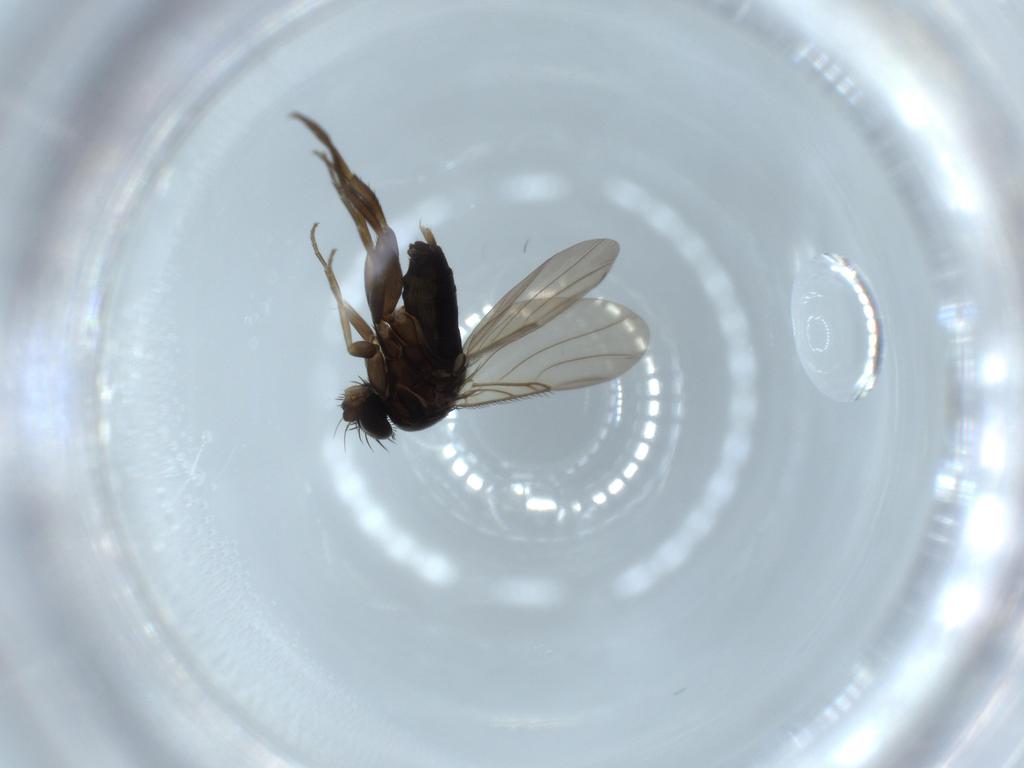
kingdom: Animalia
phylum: Arthropoda
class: Insecta
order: Diptera
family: Phoridae
